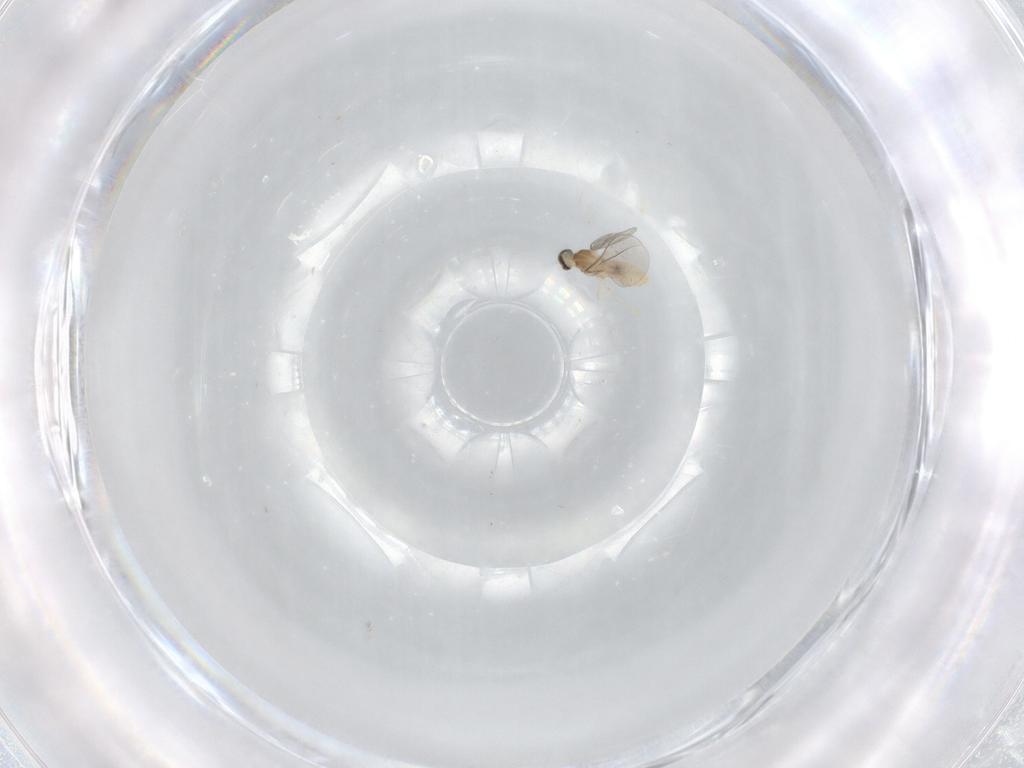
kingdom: Animalia
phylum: Arthropoda
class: Insecta
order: Diptera
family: Cecidomyiidae
